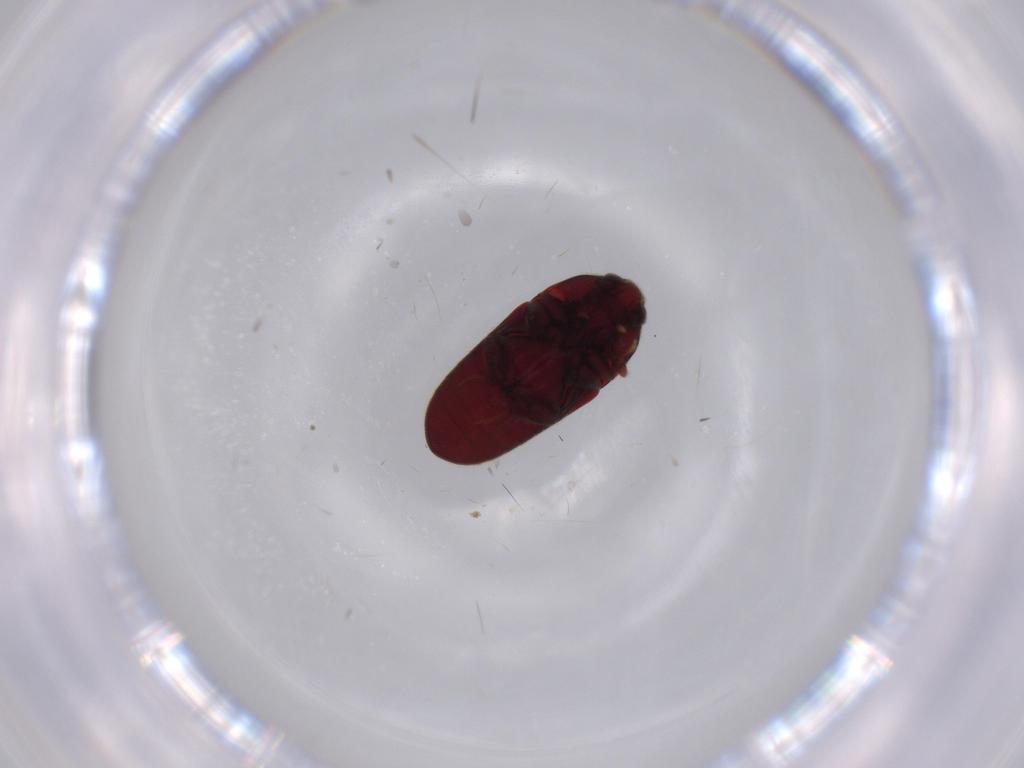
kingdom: Animalia
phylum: Arthropoda
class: Insecta
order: Coleoptera
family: Throscidae
